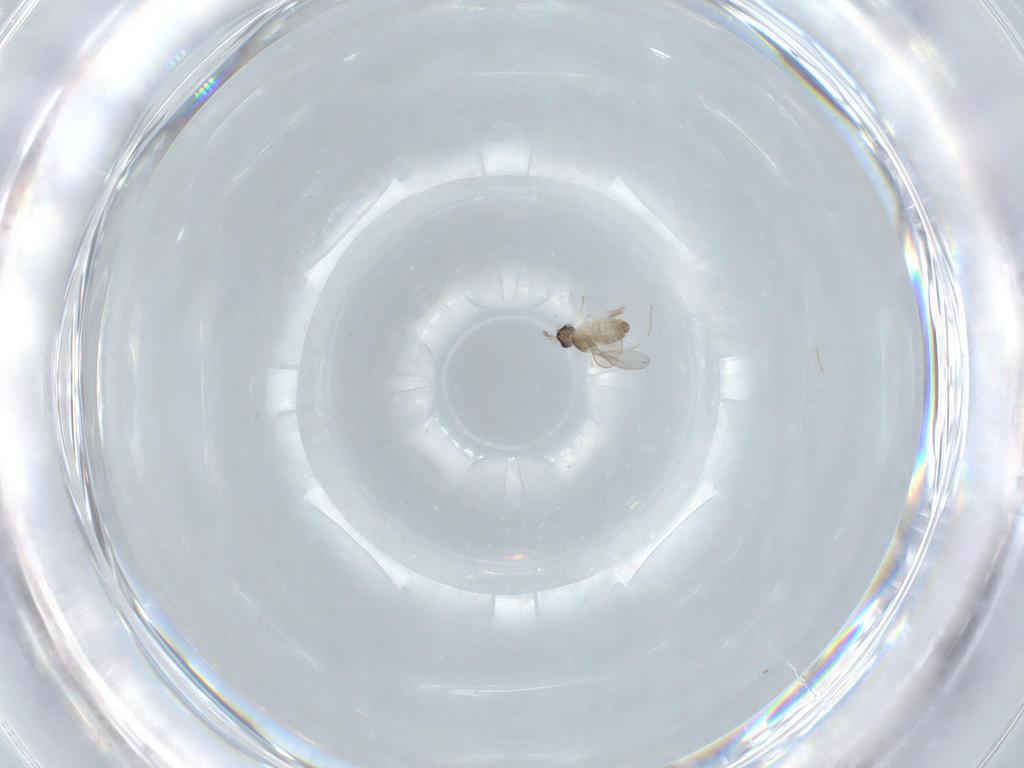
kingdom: Animalia
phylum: Arthropoda
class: Insecta
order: Diptera
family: Cecidomyiidae
